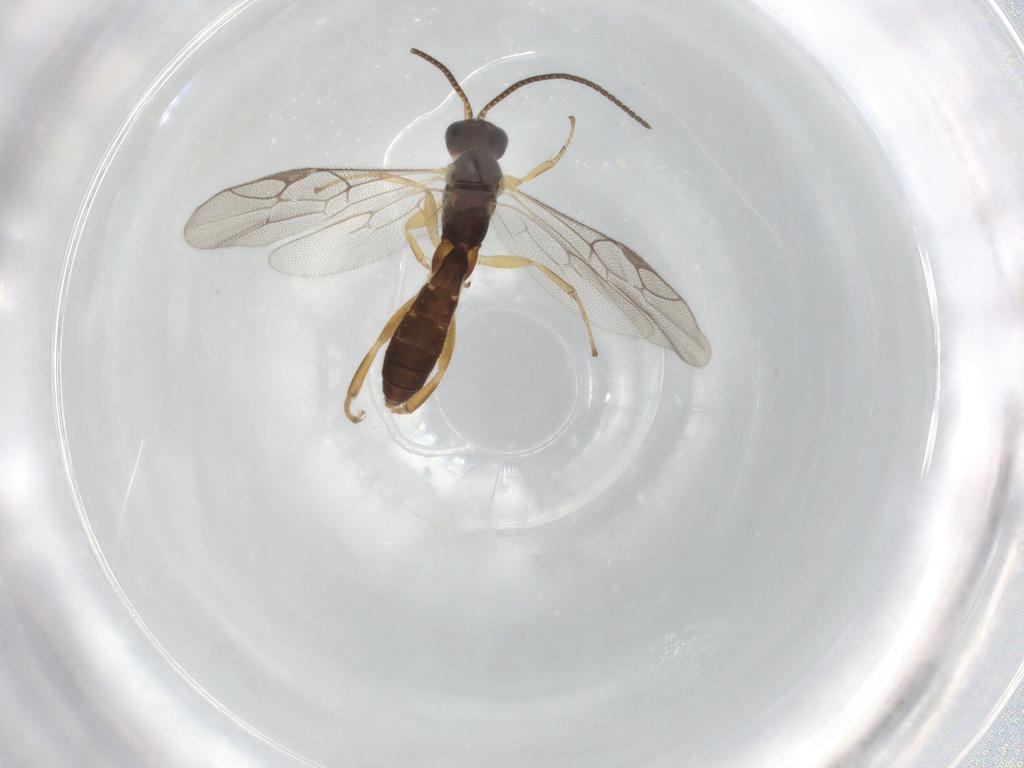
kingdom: Animalia
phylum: Arthropoda
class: Insecta
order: Hymenoptera
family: Ichneumonidae
